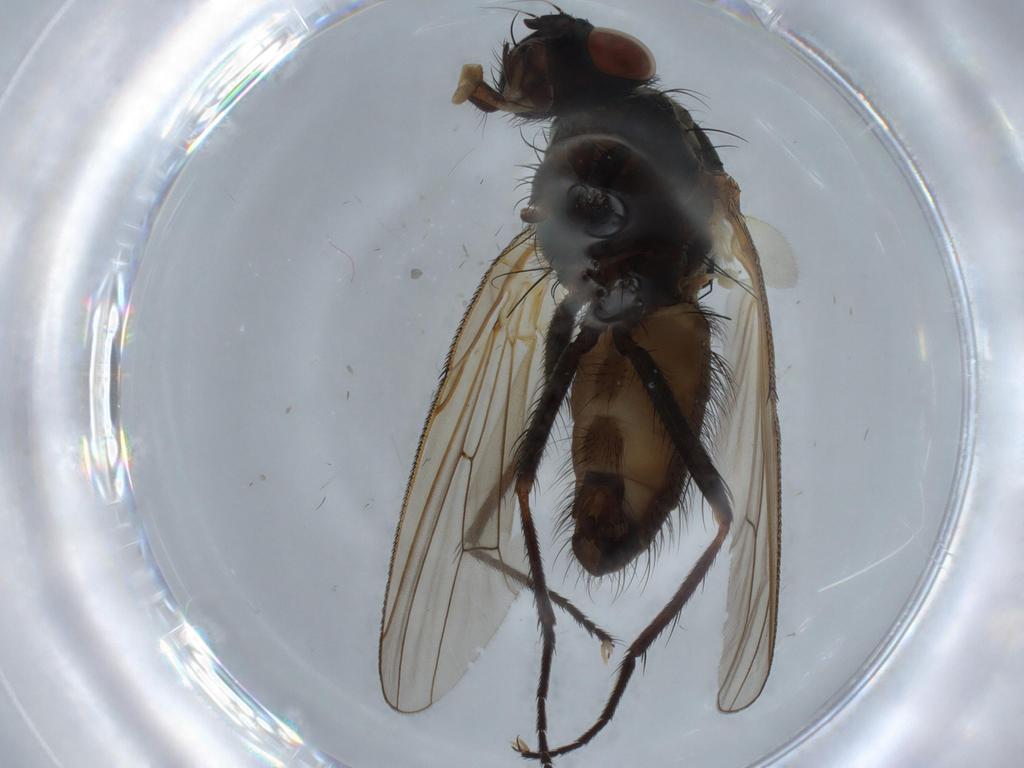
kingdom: Animalia
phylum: Arthropoda
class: Insecta
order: Diptera
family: Anthomyiidae
